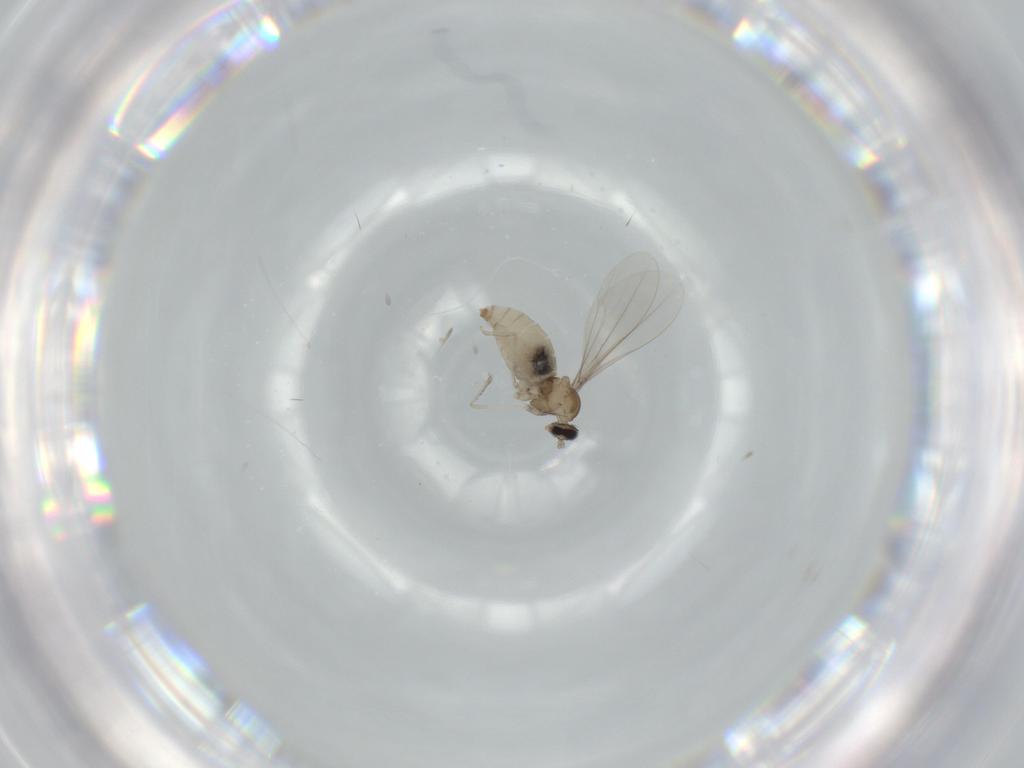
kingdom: Animalia
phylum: Arthropoda
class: Insecta
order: Diptera
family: Cecidomyiidae
